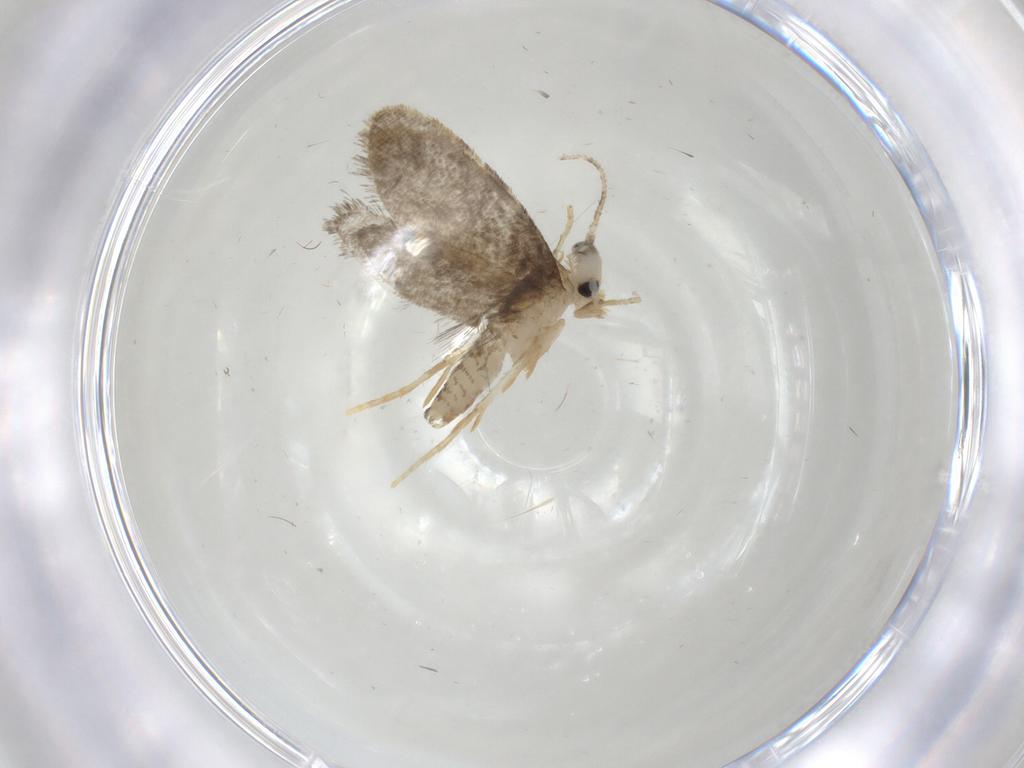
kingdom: Animalia
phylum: Arthropoda
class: Insecta
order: Lepidoptera
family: Psychidae
